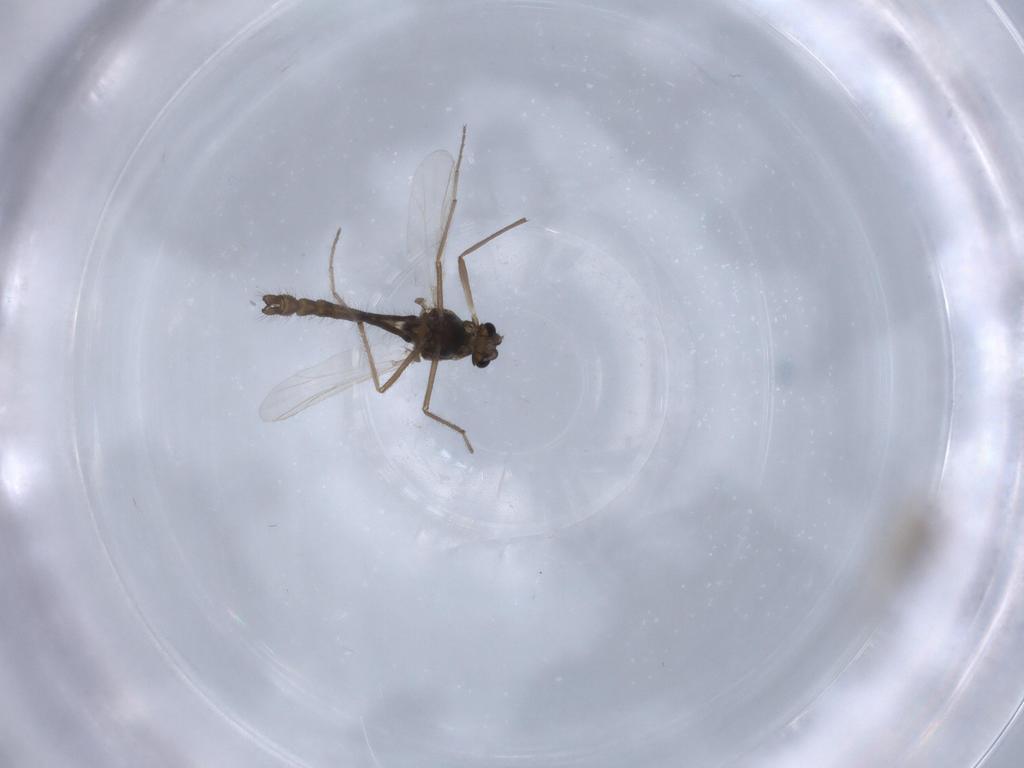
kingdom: Animalia
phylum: Arthropoda
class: Insecta
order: Diptera
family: Chironomidae
